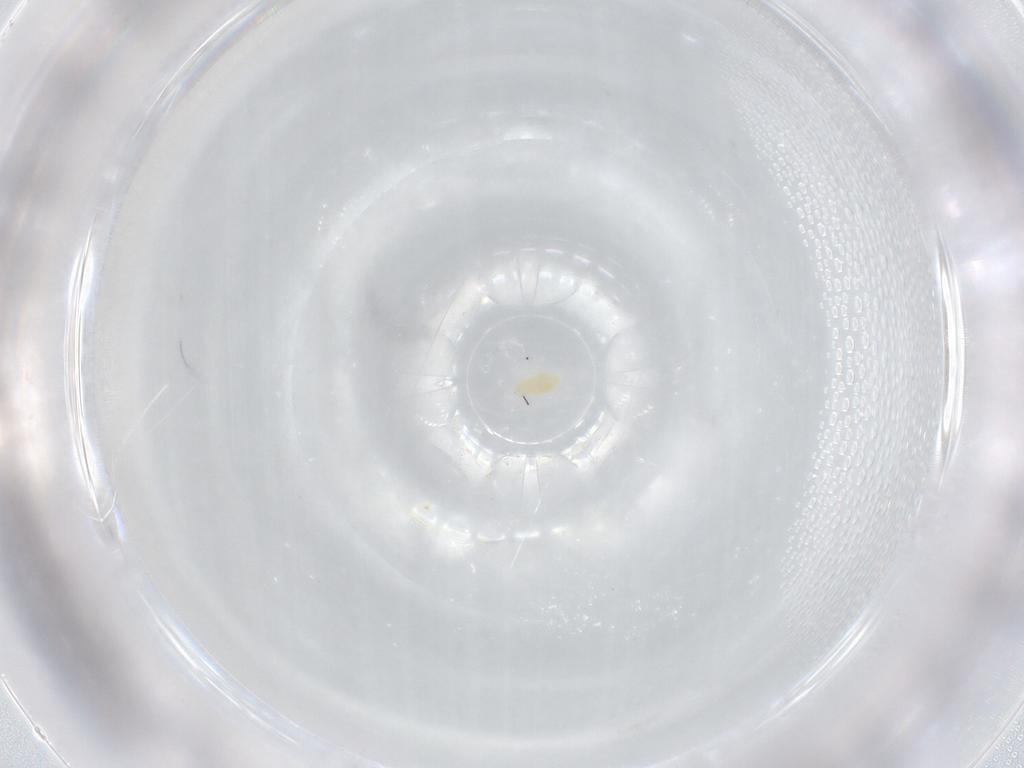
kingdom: Animalia
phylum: Arthropoda
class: Arachnida
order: Trombidiformes
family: Eupodidae
